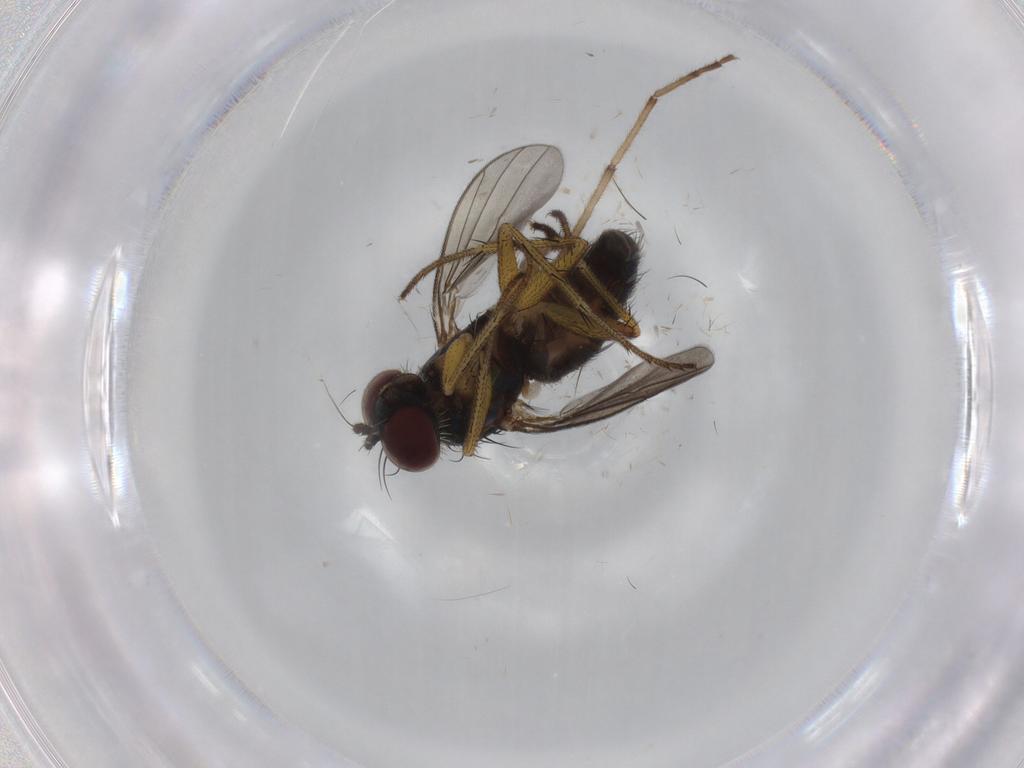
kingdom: Animalia
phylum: Arthropoda
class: Insecta
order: Diptera
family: Dolichopodidae
